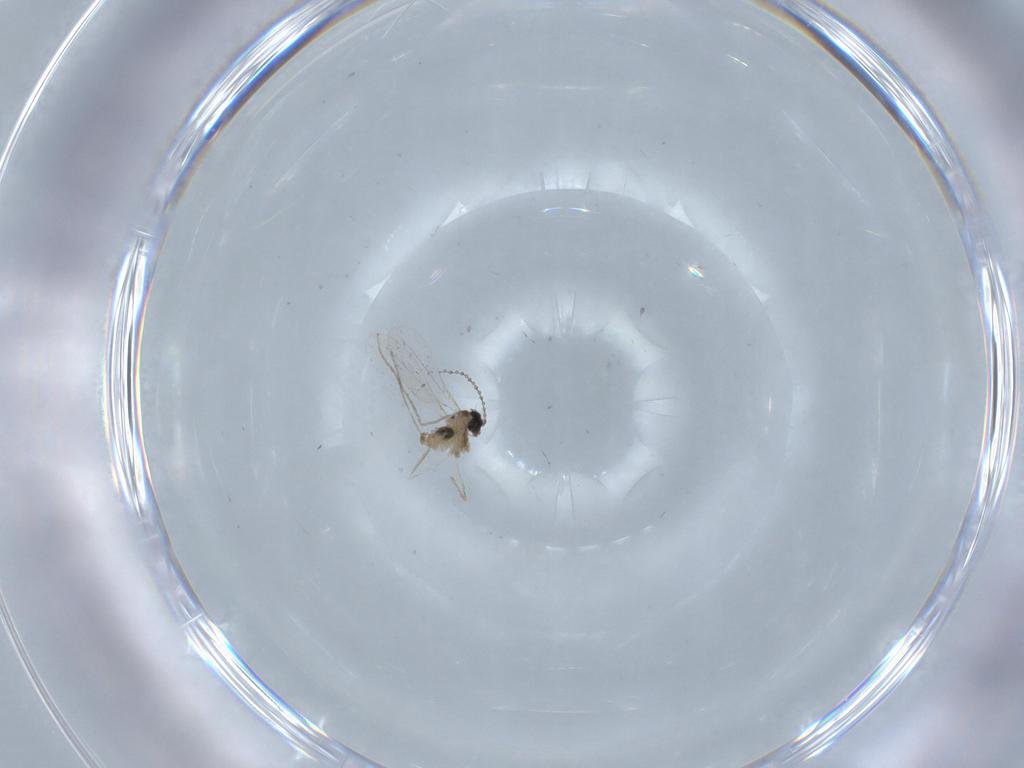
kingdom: Animalia
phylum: Arthropoda
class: Insecta
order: Diptera
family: Cecidomyiidae
